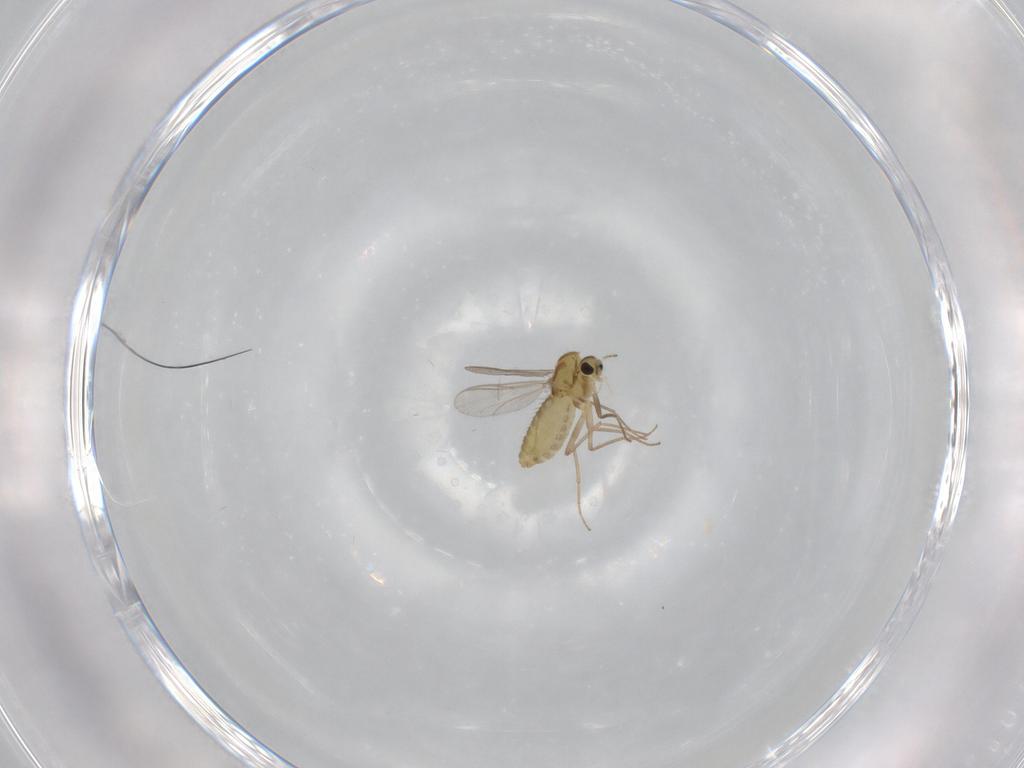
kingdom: Animalia
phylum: Arthropoda
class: Insecta
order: Diptera
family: Chironomidae
